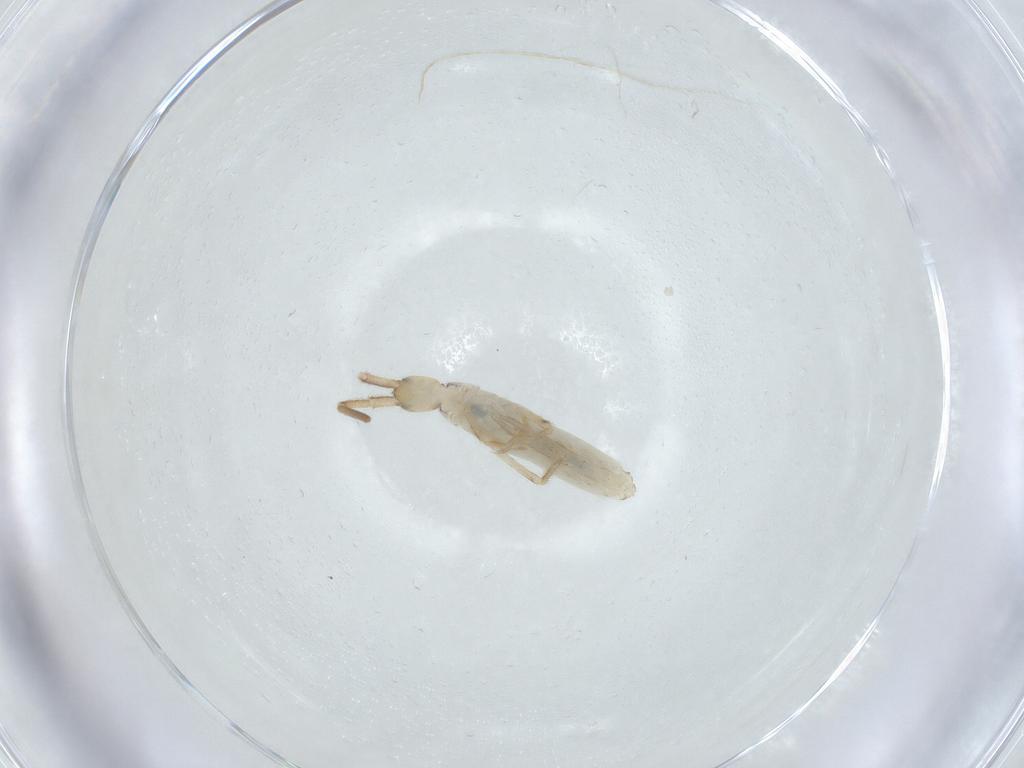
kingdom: Animalia
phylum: Arthropoda
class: Collembola
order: Entomobryomorpha
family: Entomobryidae
